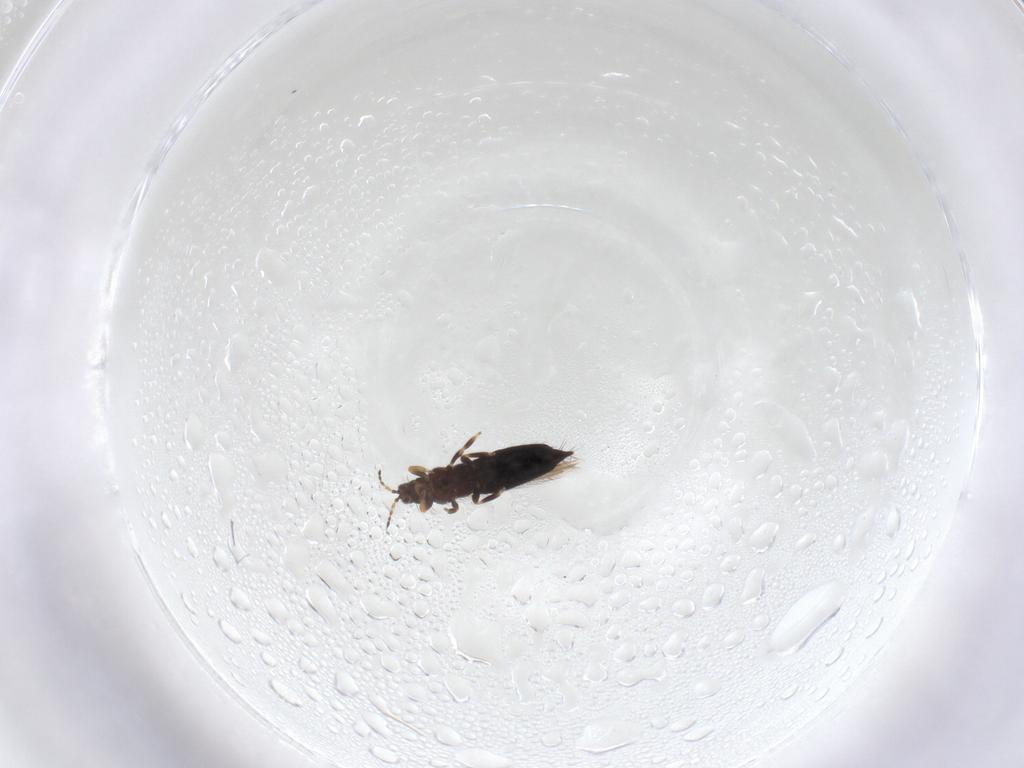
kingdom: Animalia
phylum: Arthropoda
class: Insecta
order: Thysanoptera
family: Thripidae
